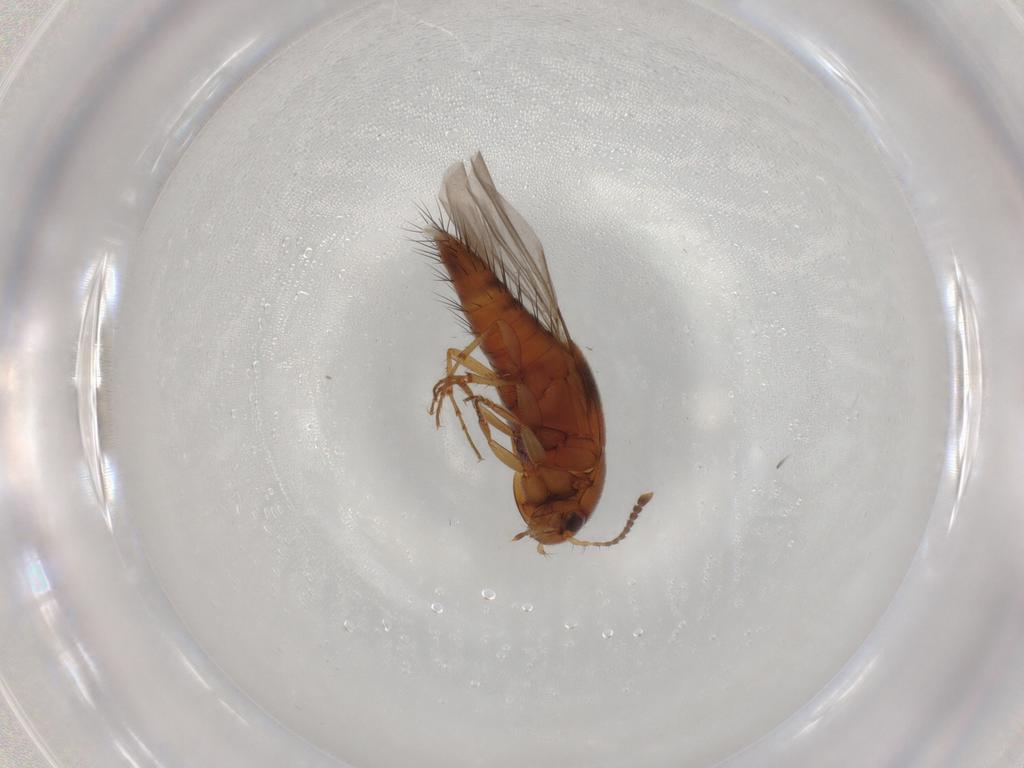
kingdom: Animalia
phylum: Arthropoda
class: Insecta
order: Coleoptera
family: Staphylinidae
